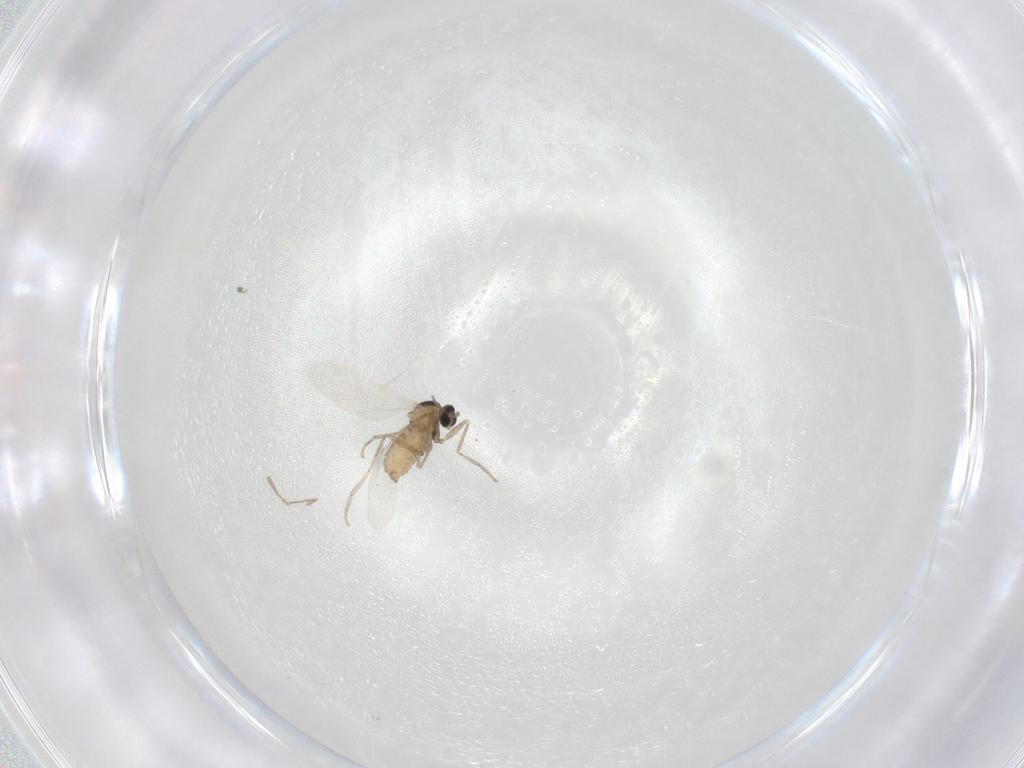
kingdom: Animalia
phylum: Arthropoda
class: Insecta
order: Diptera
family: Cecidomyiidae
